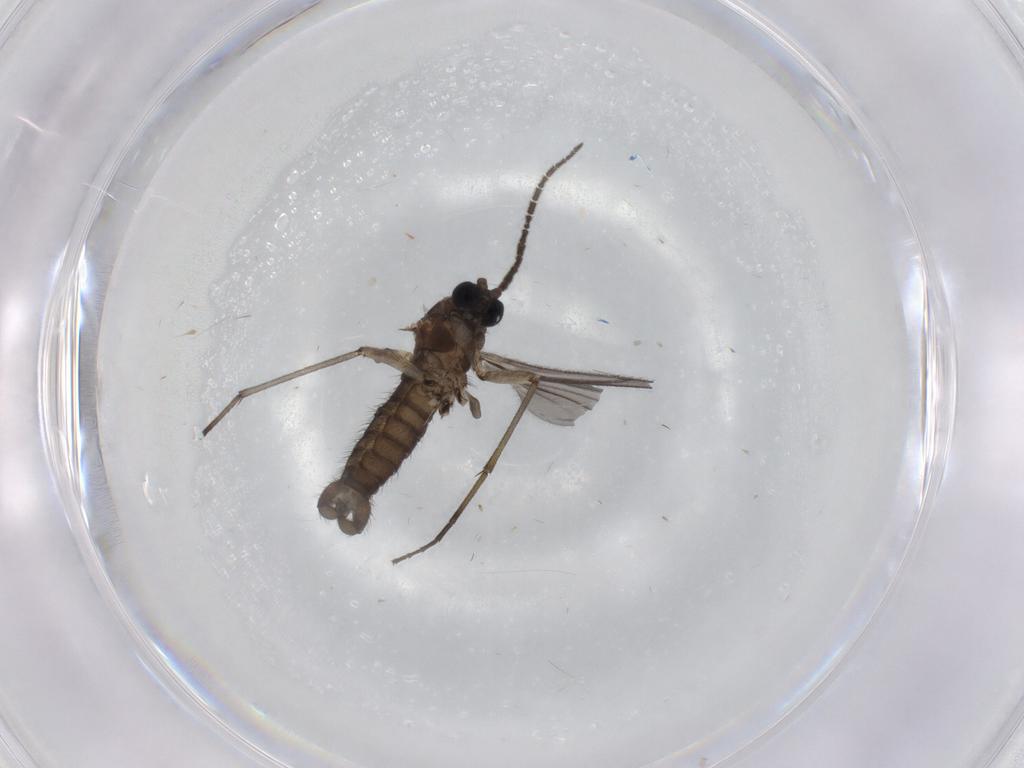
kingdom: Animalia
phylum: Arthropoda
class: Insecta
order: Diptera
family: Sciaridae
